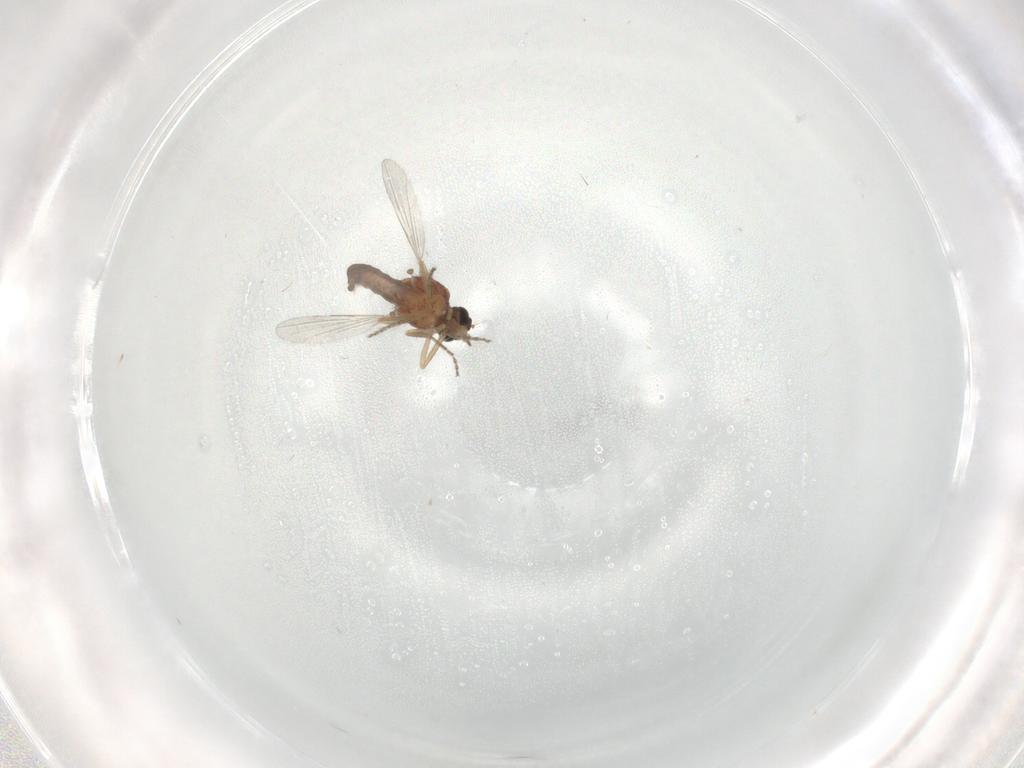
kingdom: Animalia
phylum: Arthropoda
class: Insecta
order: Diptera
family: Ceratopogonidae
